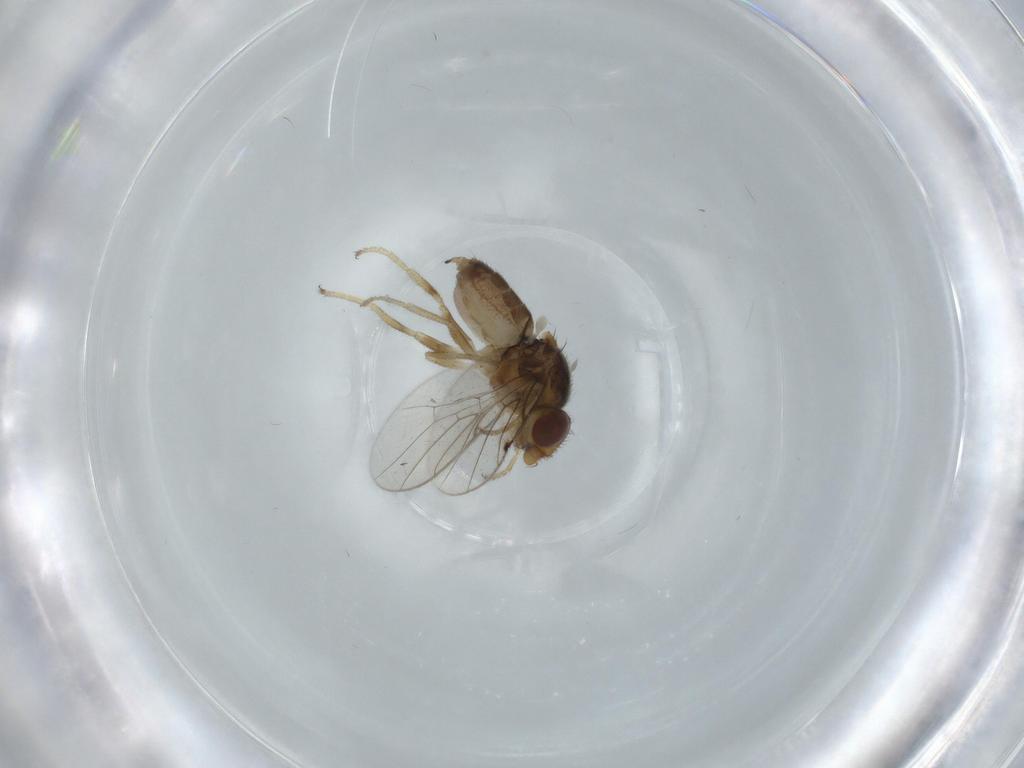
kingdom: Animalia
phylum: Arthropoda
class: Insecta
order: Diptera
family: Chloropidae
